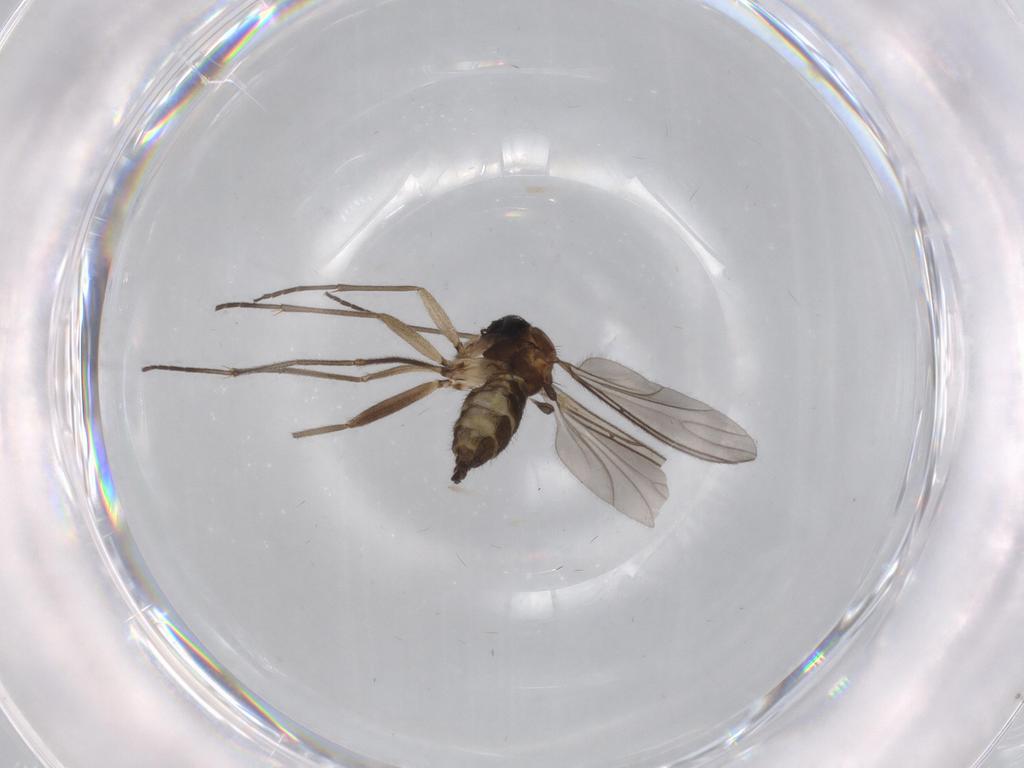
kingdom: Animalia
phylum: Arthropoda
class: Insecta
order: Diptera
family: Sciaridae
